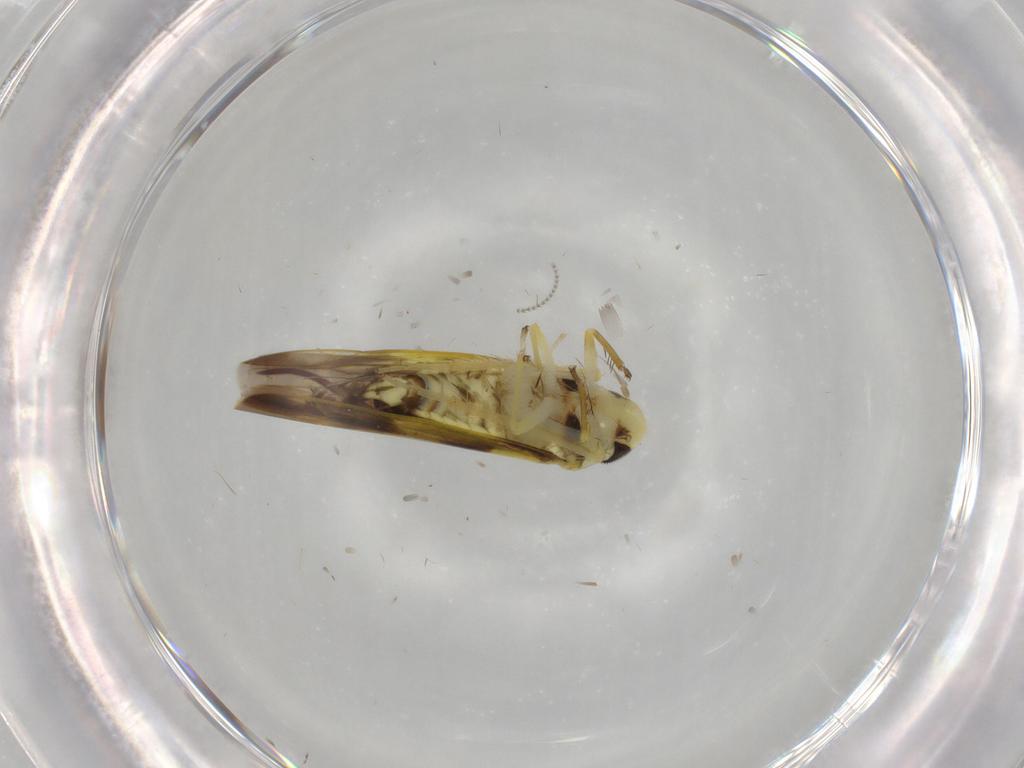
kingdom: Animalia
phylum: Arthropoda
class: Insecta
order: Hemiptera
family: Cicadellidae
